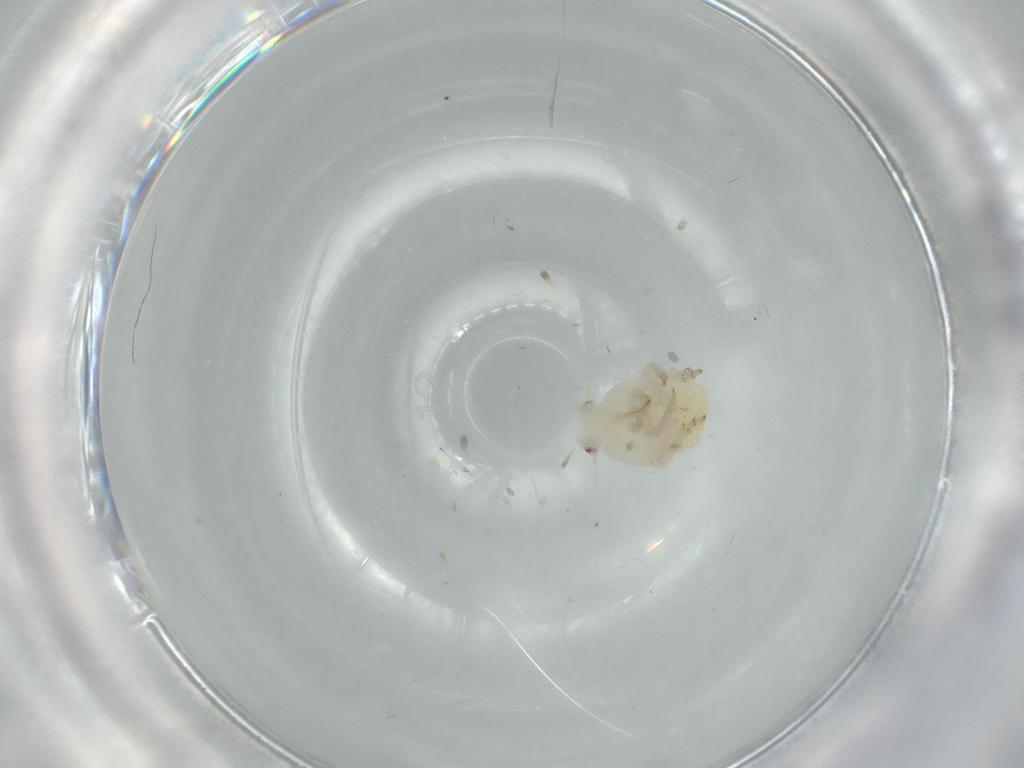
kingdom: Animalia
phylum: Arthropoda
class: Insecta
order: Hemiptera
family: Flatidae
